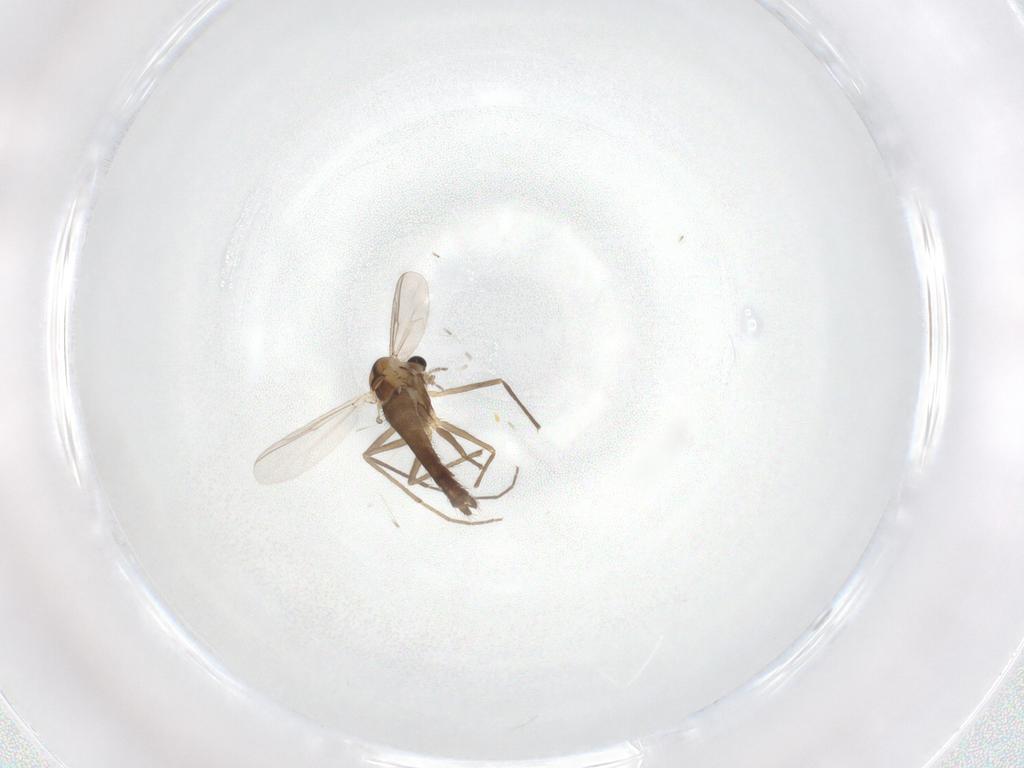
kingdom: Animalia
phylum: Arthropoda
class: Insecta
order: Diptera
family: Chironomidae
